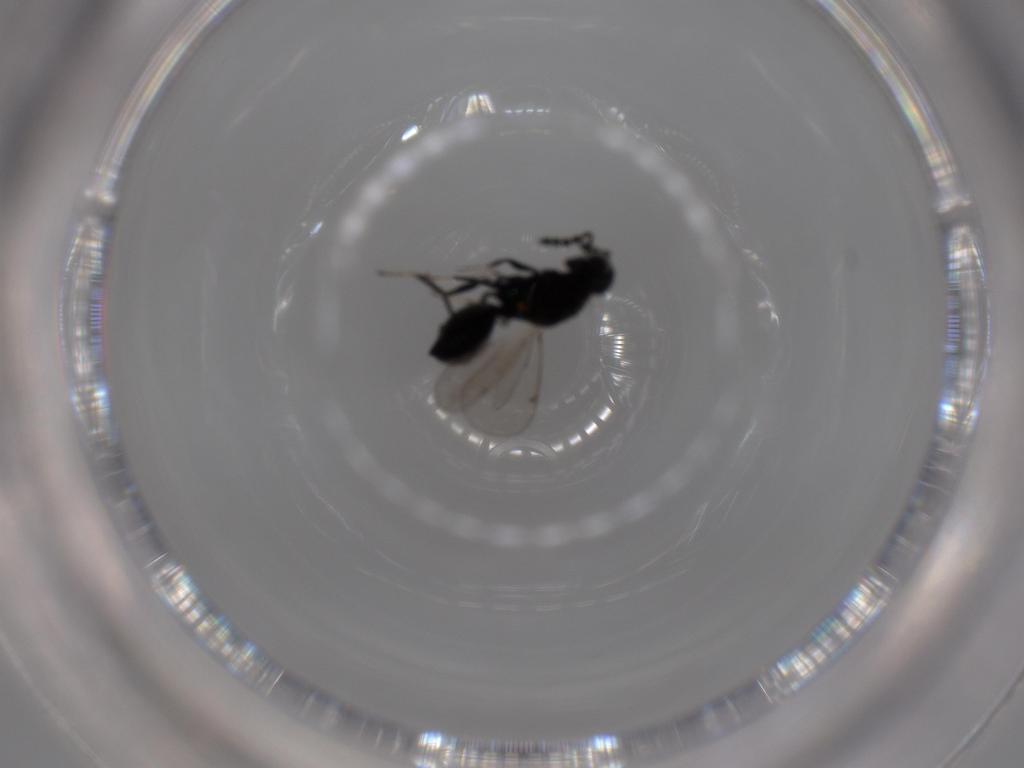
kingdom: Animalia
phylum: Arthropoda
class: Insecta
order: Hymenoptera
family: Eulophidae
